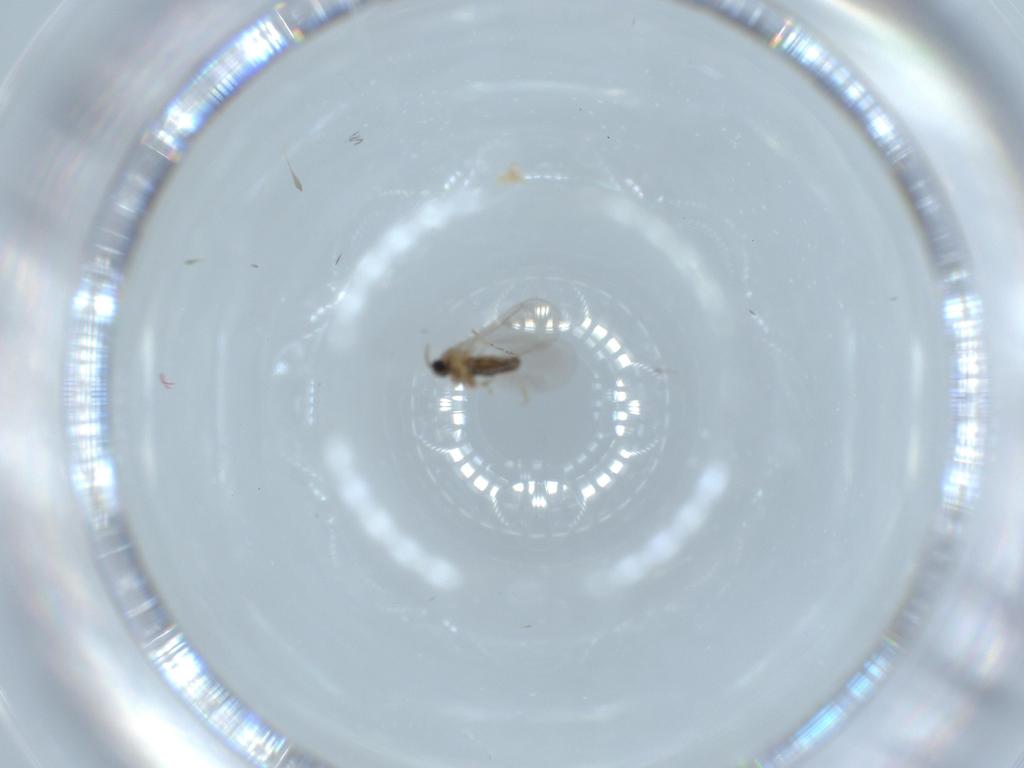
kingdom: Animalia
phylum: Arthropoda
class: Insecta
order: Diptera
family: Cecidomyiidae
